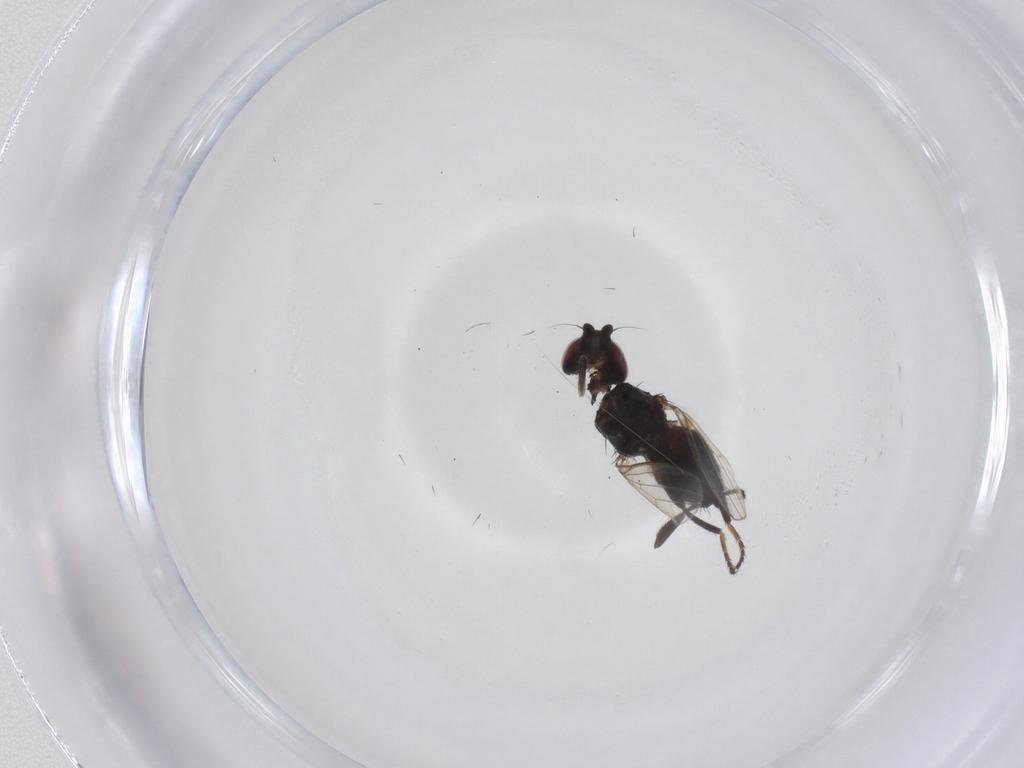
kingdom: Animalia
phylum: Arthropoda
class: Insecta
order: Diptera
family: Milichiidae
